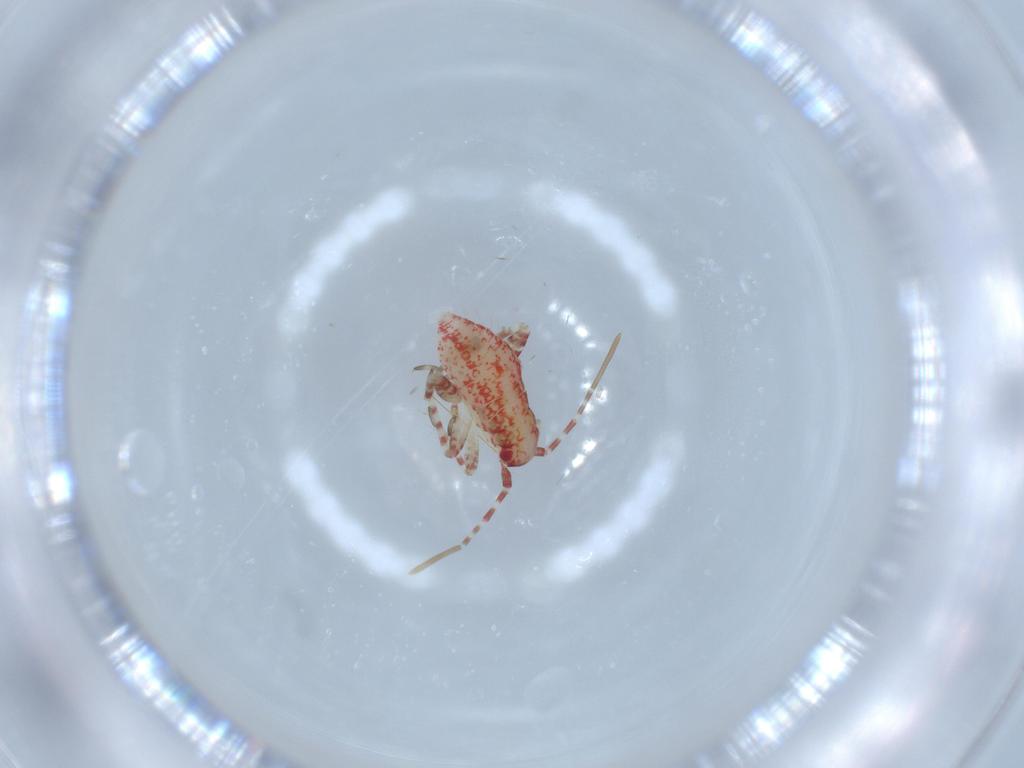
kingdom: Animalia
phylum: Arthropoda
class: Insecta
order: Hemiptera
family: Miridae
